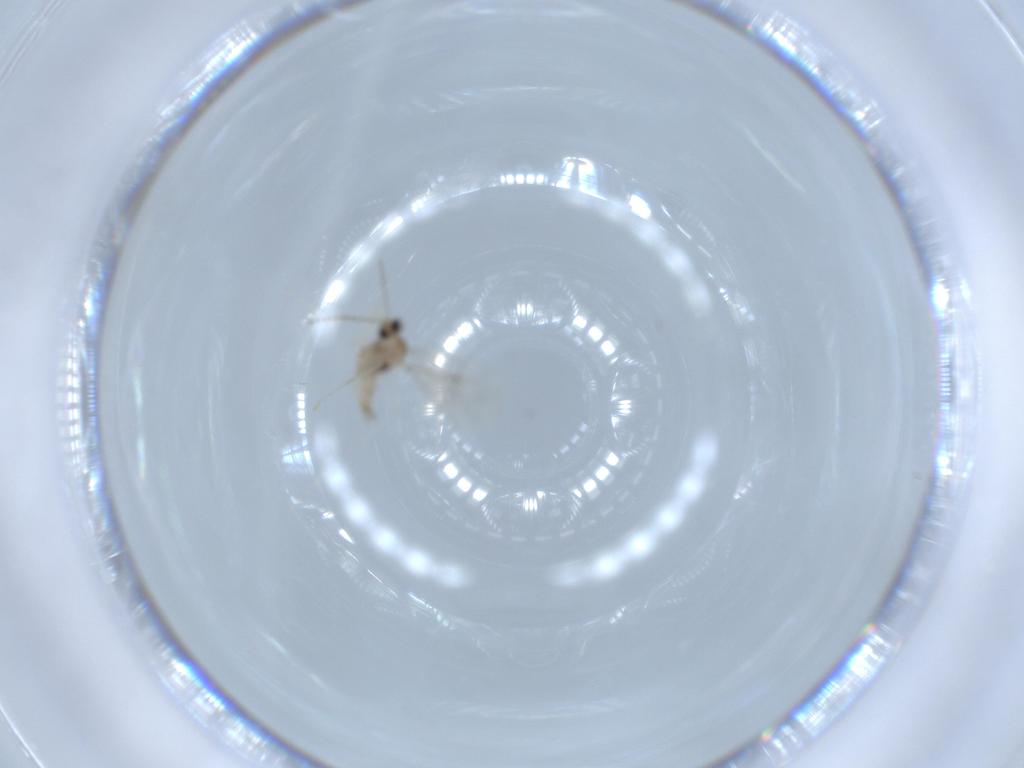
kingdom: Animalia
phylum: Arthropoda
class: Insecta
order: Diptera
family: Cecidomyiidae
